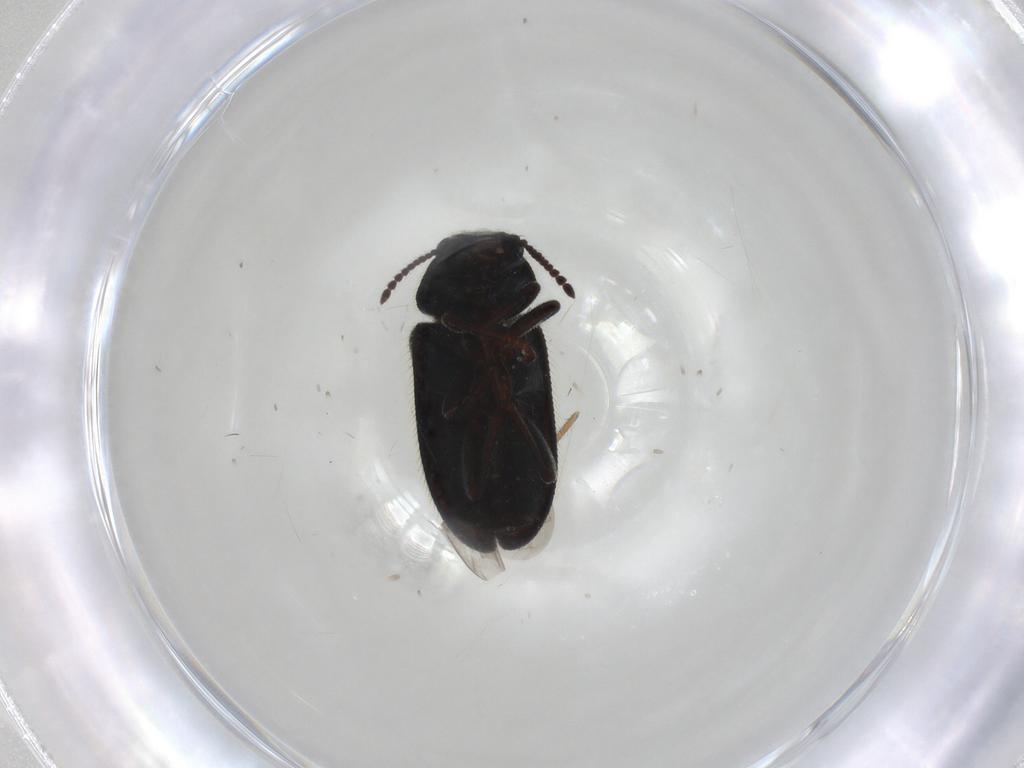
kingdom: Animalia
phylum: Arthropoda
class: Insecta
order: Coleoptera
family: Melyridae
